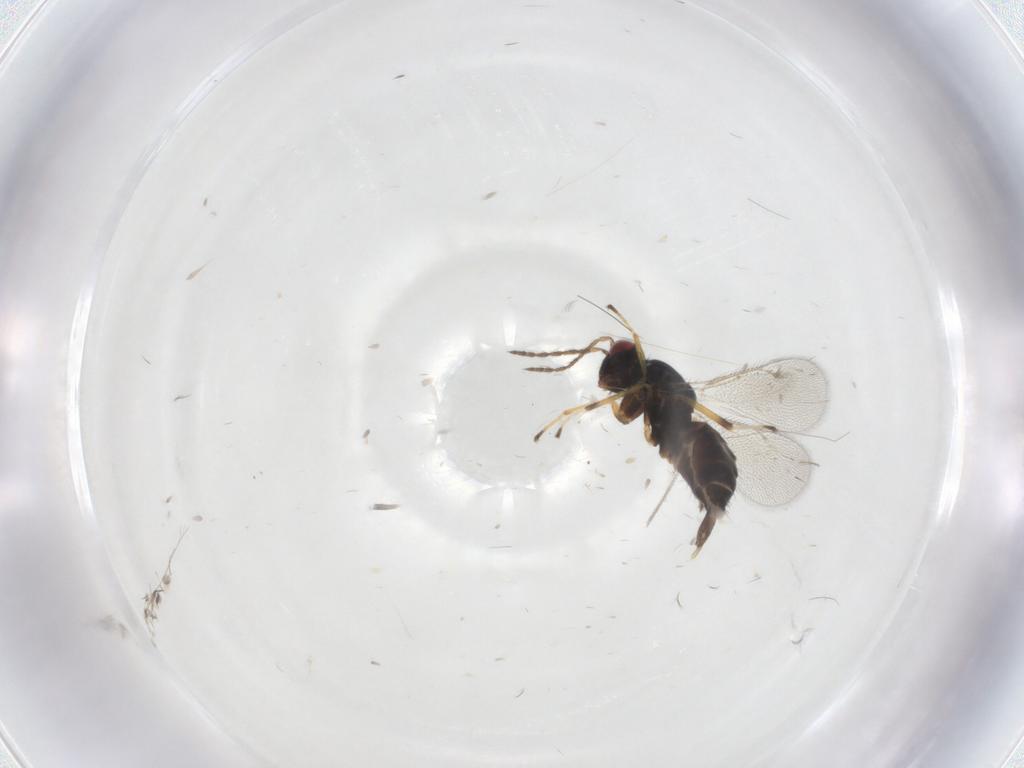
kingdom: Animalia
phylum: Arthropoda
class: Insecta
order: Hymenoptera
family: Eulophidae
